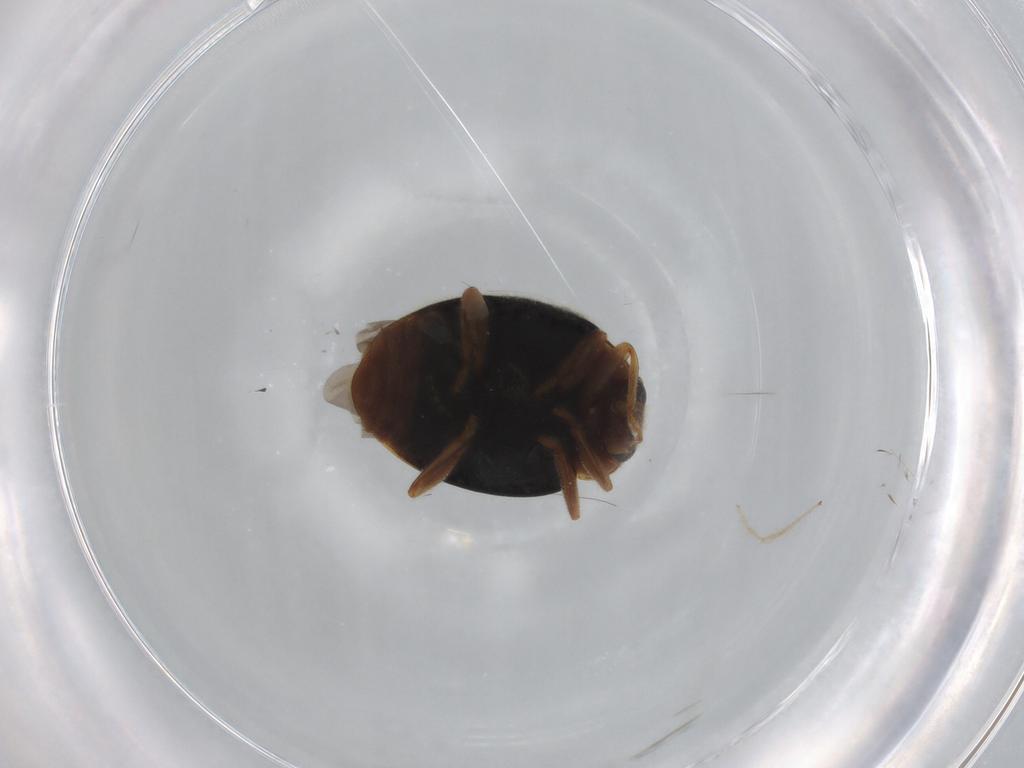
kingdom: Animalia
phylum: Arthropoda
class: Insecta
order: Coleoptera
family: Coccinellidae
